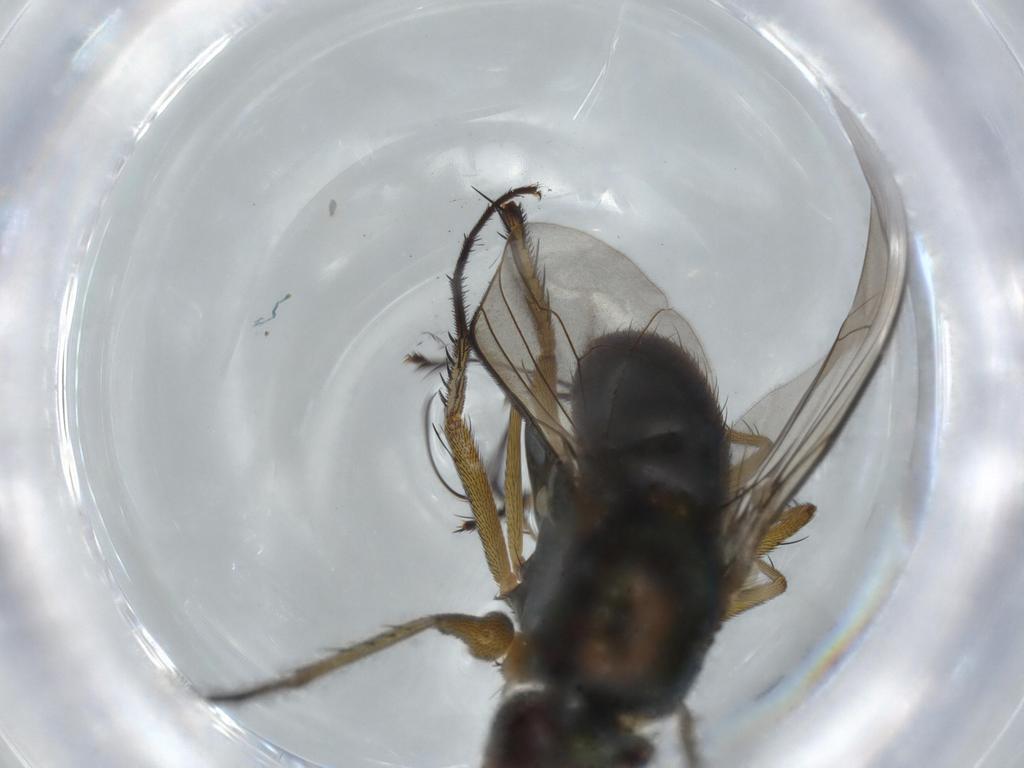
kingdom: Animalia
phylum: Arthropoda
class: Insecta
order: Diptera
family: Dolichopodidae
